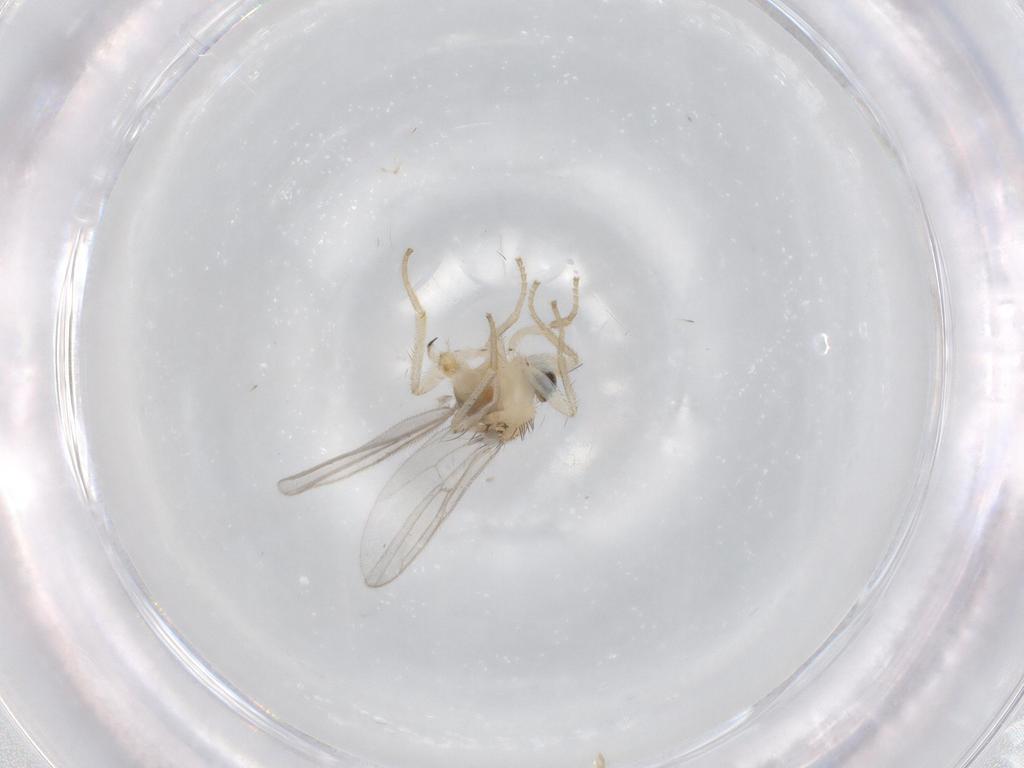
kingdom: Animalia
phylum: Arthropoda
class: Insecta
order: Diptera
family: Hybotidae
